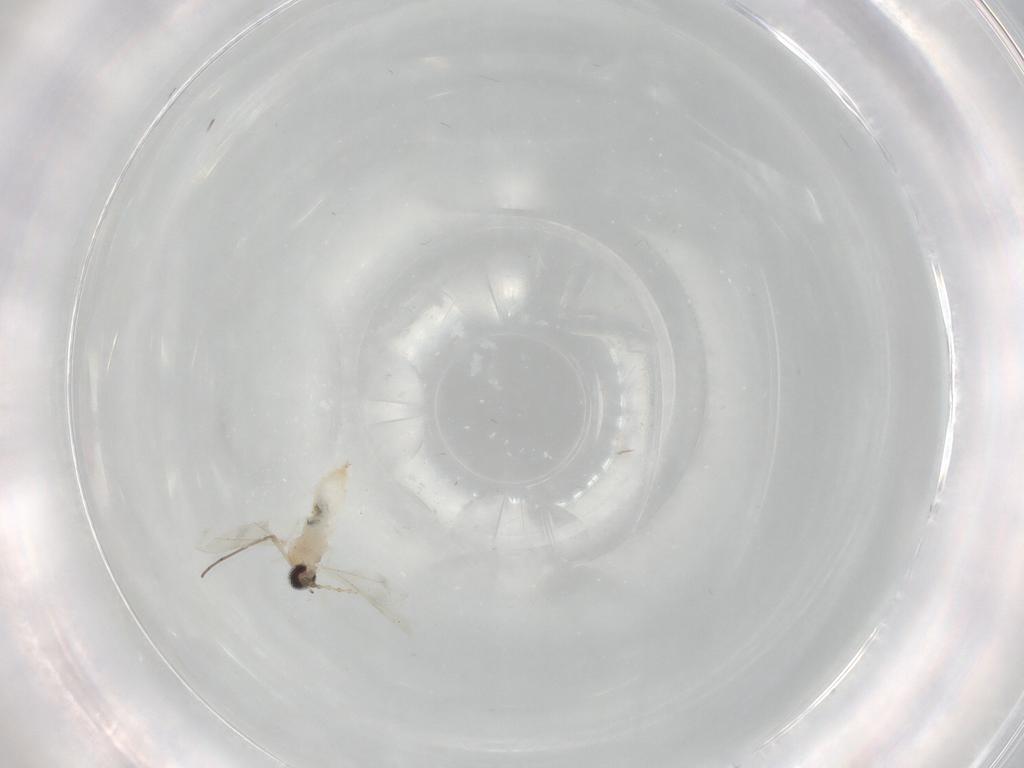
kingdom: Animalia
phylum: Arthropoda
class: Insecta
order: Diptera
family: Cecidomyiidae
